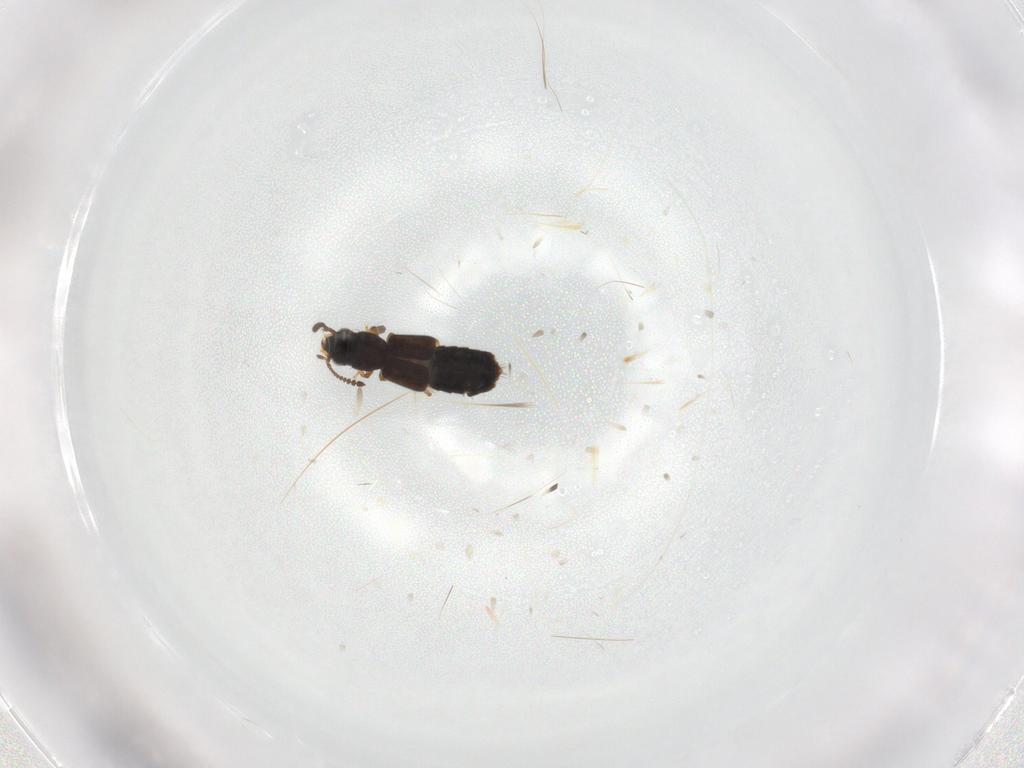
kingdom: Animalia
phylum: Arthropoda
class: Insecta
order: Coleoptera
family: Staphylinidae
